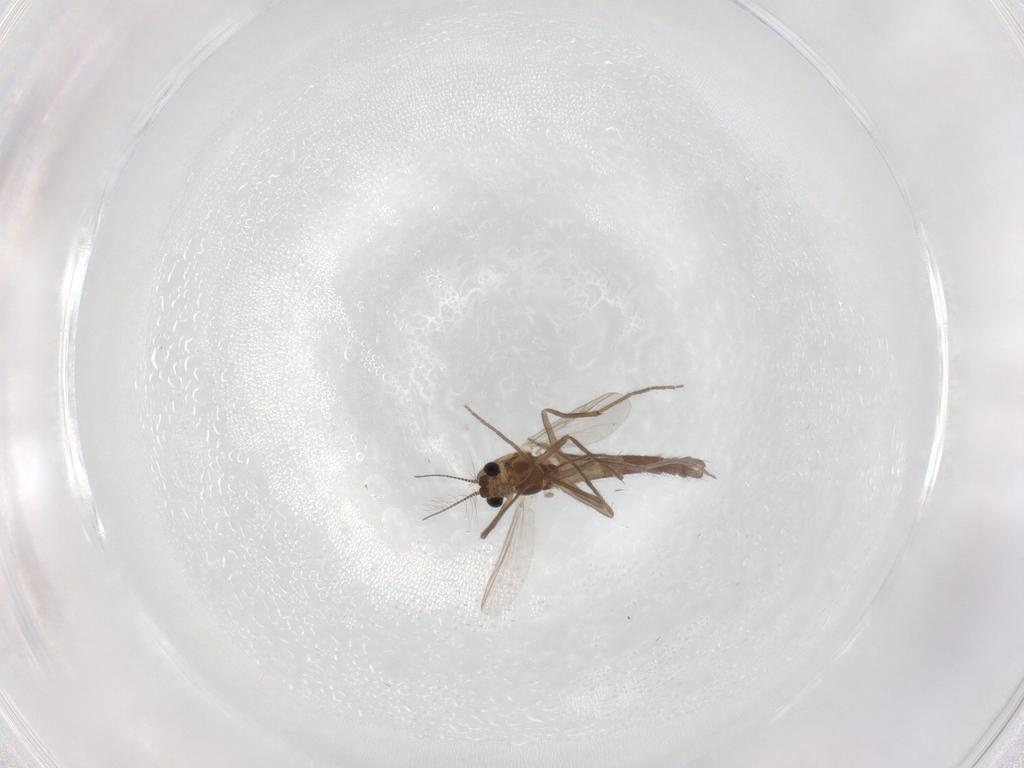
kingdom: Animalia
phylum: Arthropoda
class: Insecta
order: Diptera
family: Chironomidae
